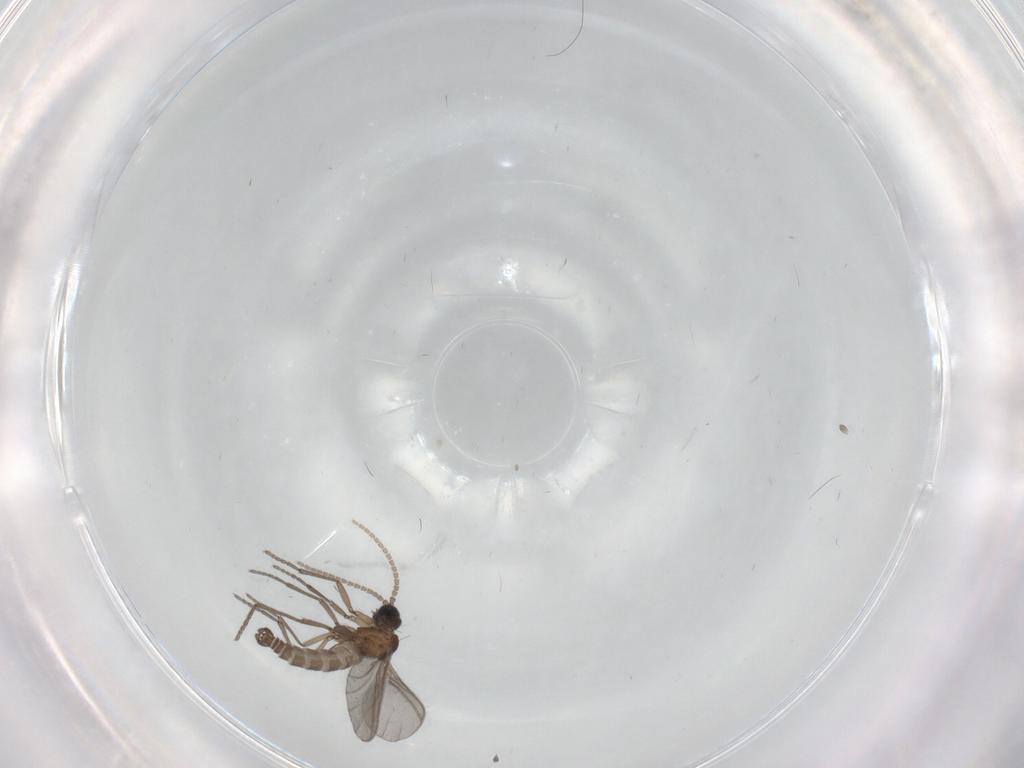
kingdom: Animalia
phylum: Arthropoda
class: Insecta
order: Diptera
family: Sciaridae
